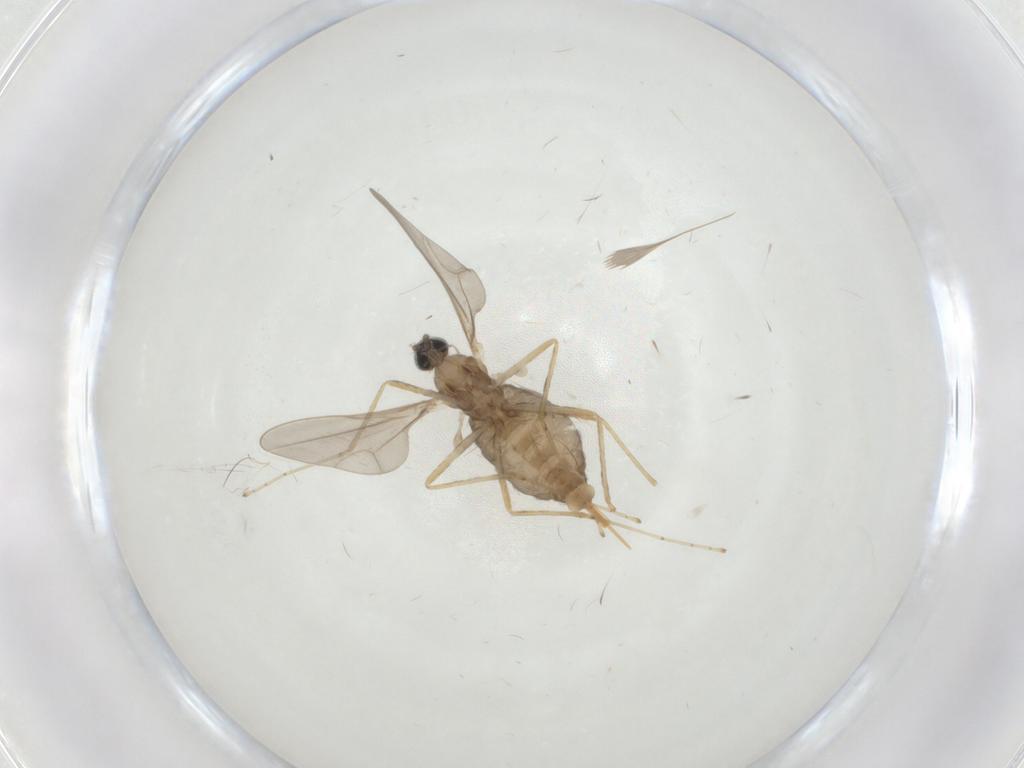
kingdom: Animalia
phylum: Arthropoda
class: Insecta
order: Diptera
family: Cecidomyiidae
